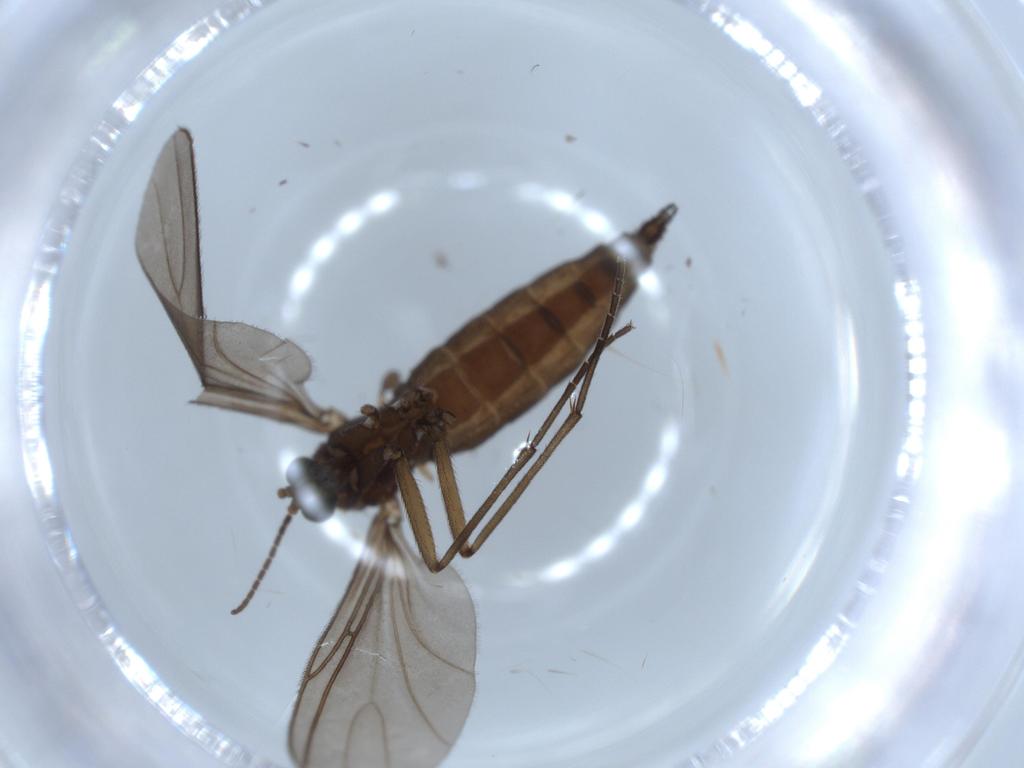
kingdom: Animalia
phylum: Arthropoda
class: Insecta
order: Diptera
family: Sciaridae
